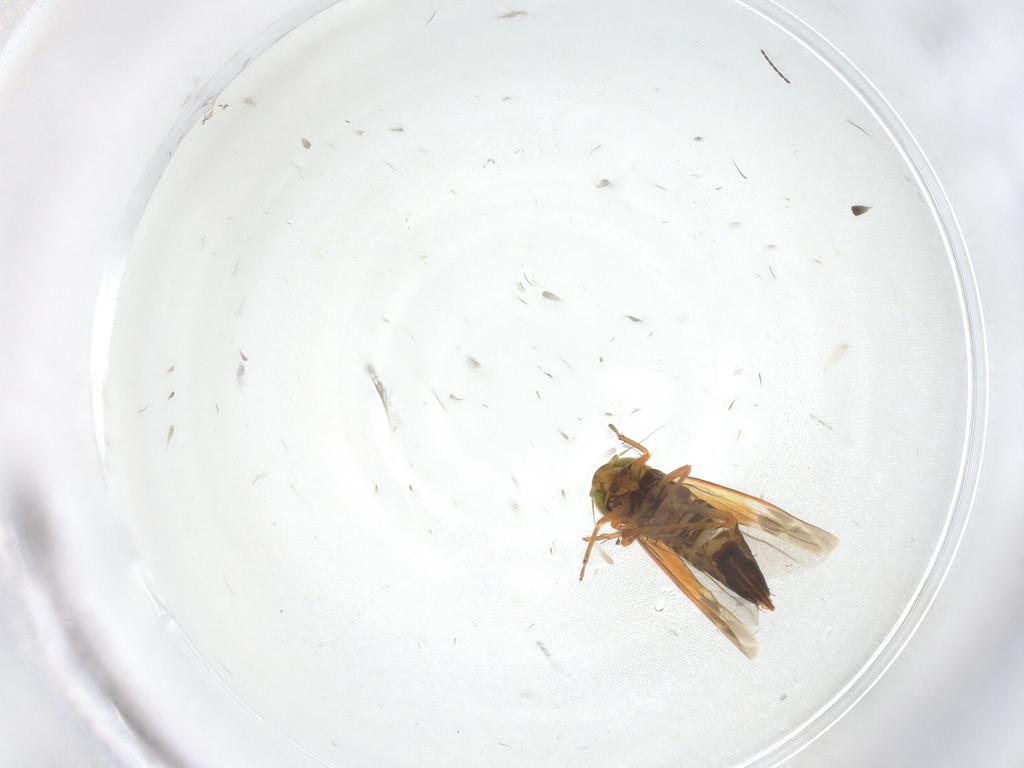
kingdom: Animalia
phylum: Arthropoda
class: Insecta
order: Hemiptera
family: Cicadellidae
